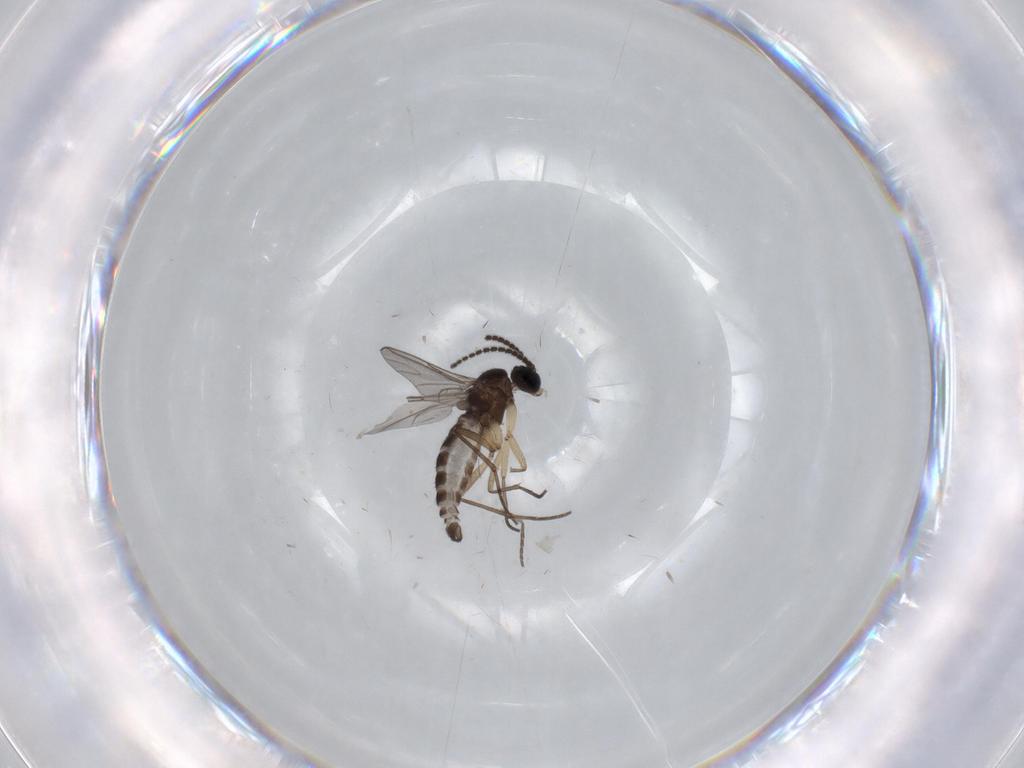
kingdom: Animalia
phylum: Arthropoda
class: Insecta
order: Diptera
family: Sciaridae
